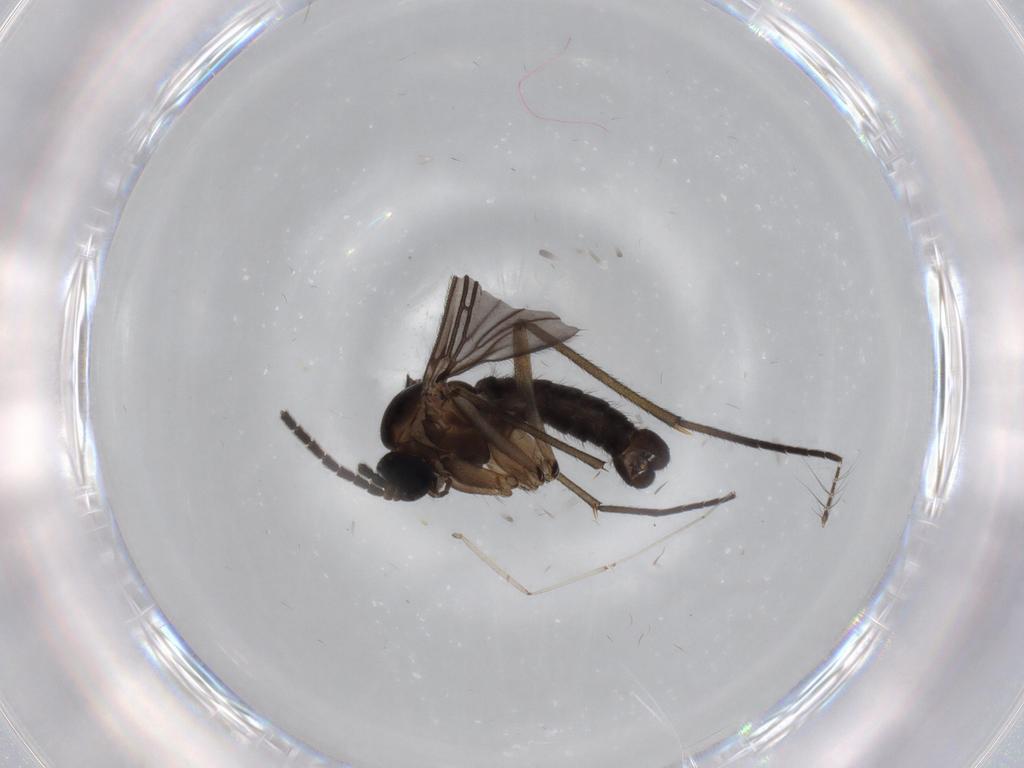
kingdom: Animalia
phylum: Arthropoda
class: Insecta
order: Diptera
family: Sciaridae
